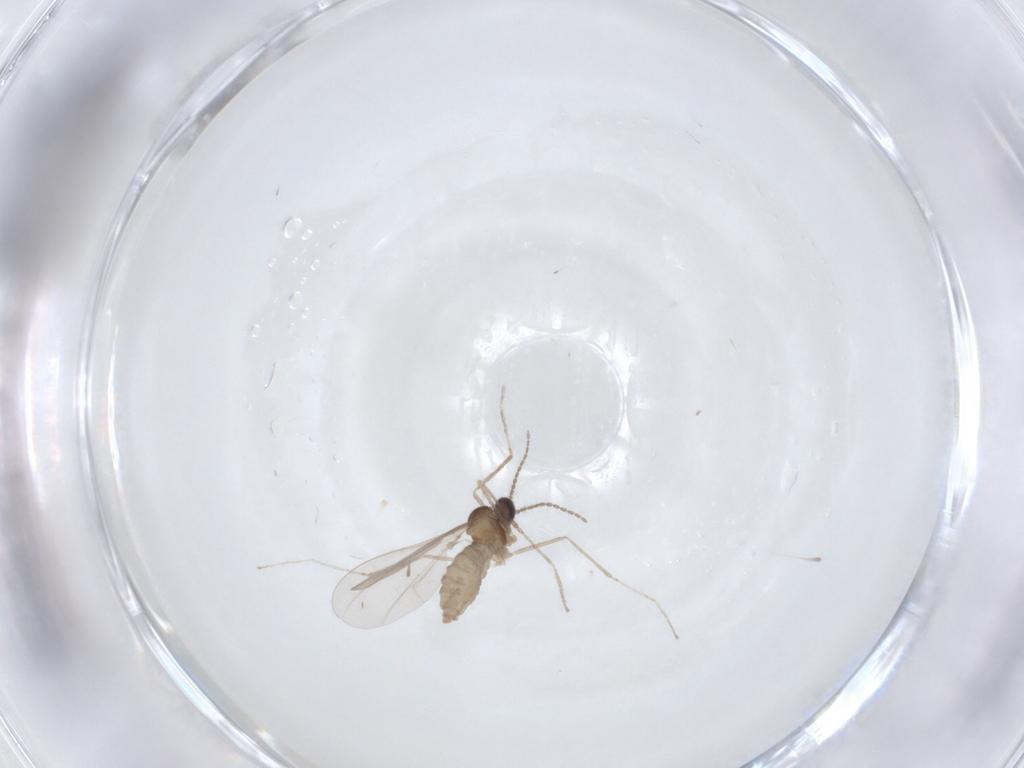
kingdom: Animalia
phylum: Arthropoda
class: Insecta
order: Diptera
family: Cecidomyiidae
